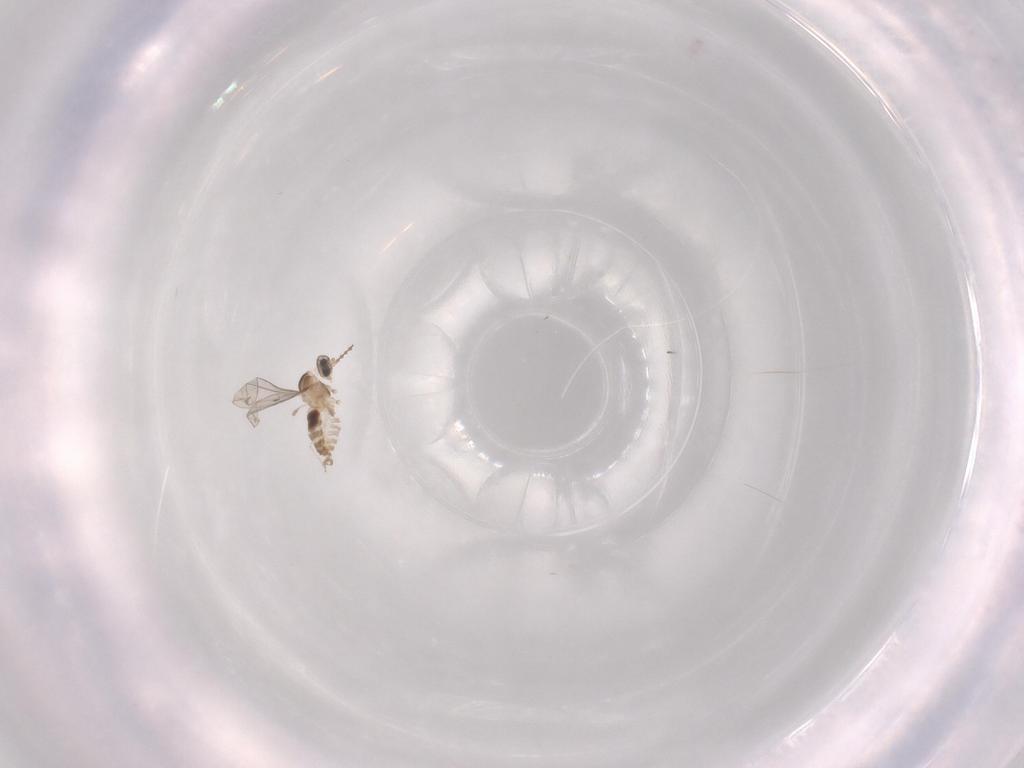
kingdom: Animalia
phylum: Arthropoda
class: Insecta
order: Diptera
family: Cecidomyiidae
